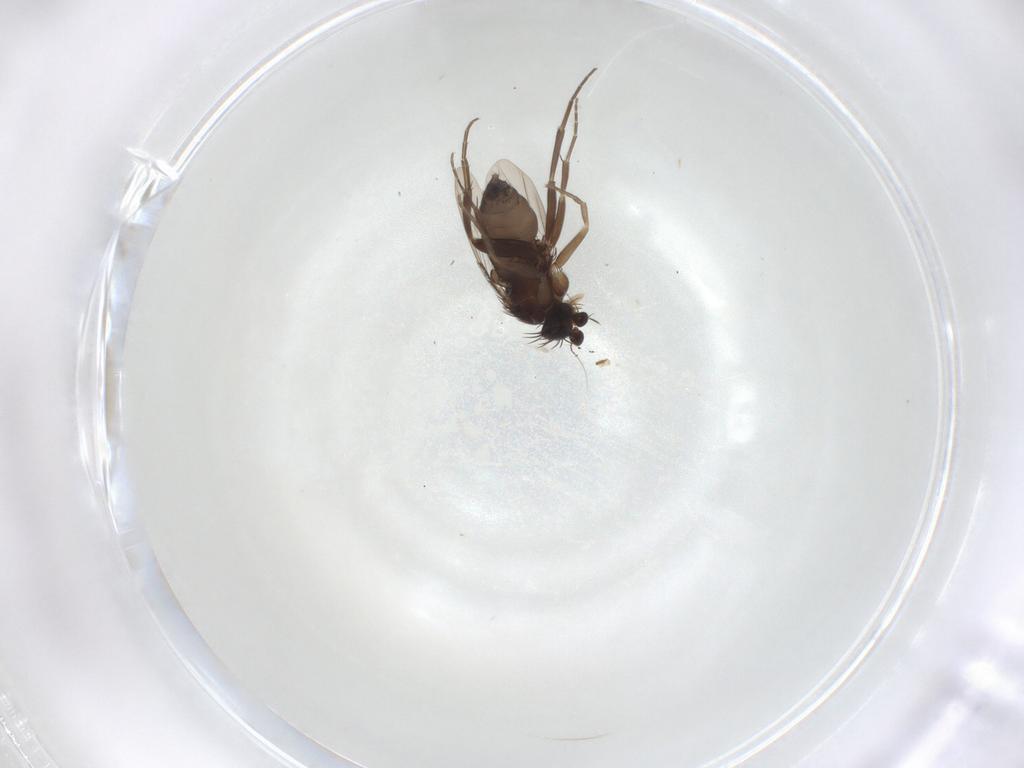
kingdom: Animalia
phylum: Arthropoda
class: Insecta
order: Diptera
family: Phoridae
